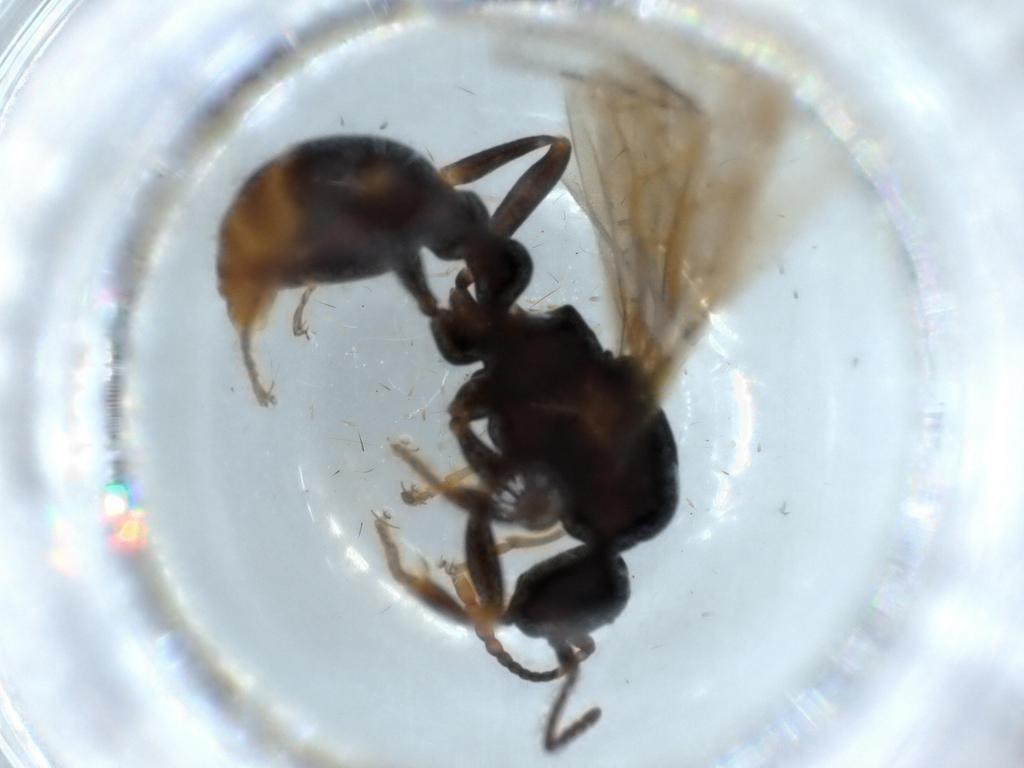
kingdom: Animalia
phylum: Arthropoda
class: Insecta
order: Hymenoptera
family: Formicidae
